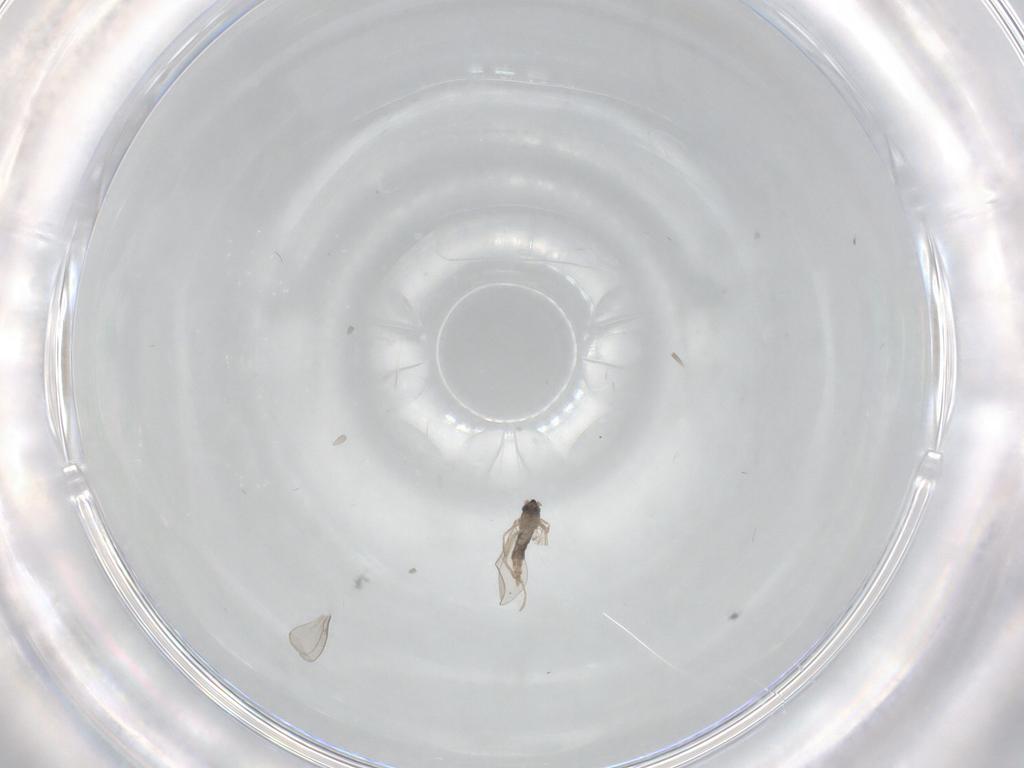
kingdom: Animalia
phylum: Arthropoda
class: Insecta
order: Diptera
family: Cecidomyiidae
